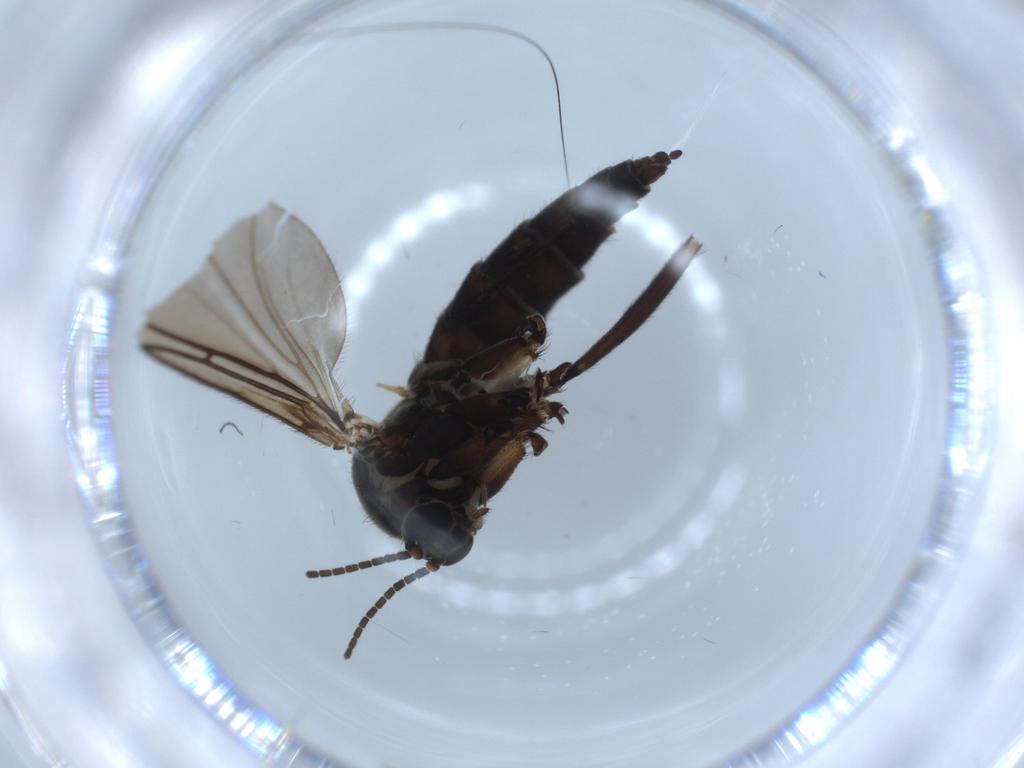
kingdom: Animalia
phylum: Arthropoda
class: Insecta
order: Diptera
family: Sciaridae
